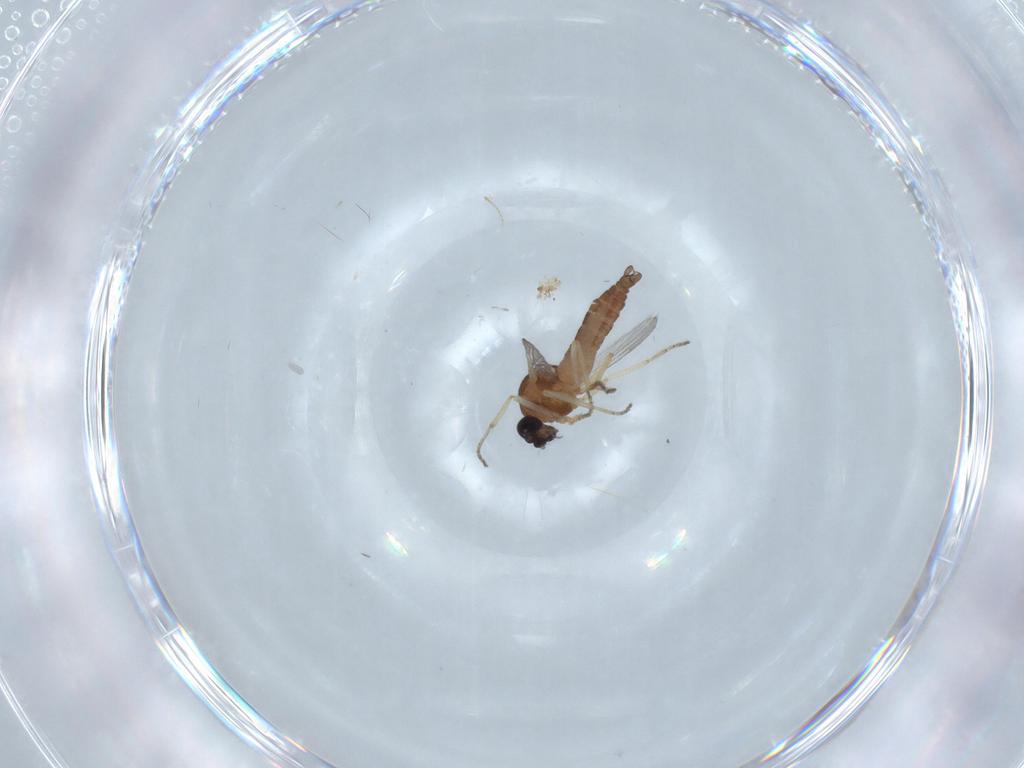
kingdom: Animalia
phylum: Arthropoda
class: Insecta
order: Diptera
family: Ceratopogonidae
